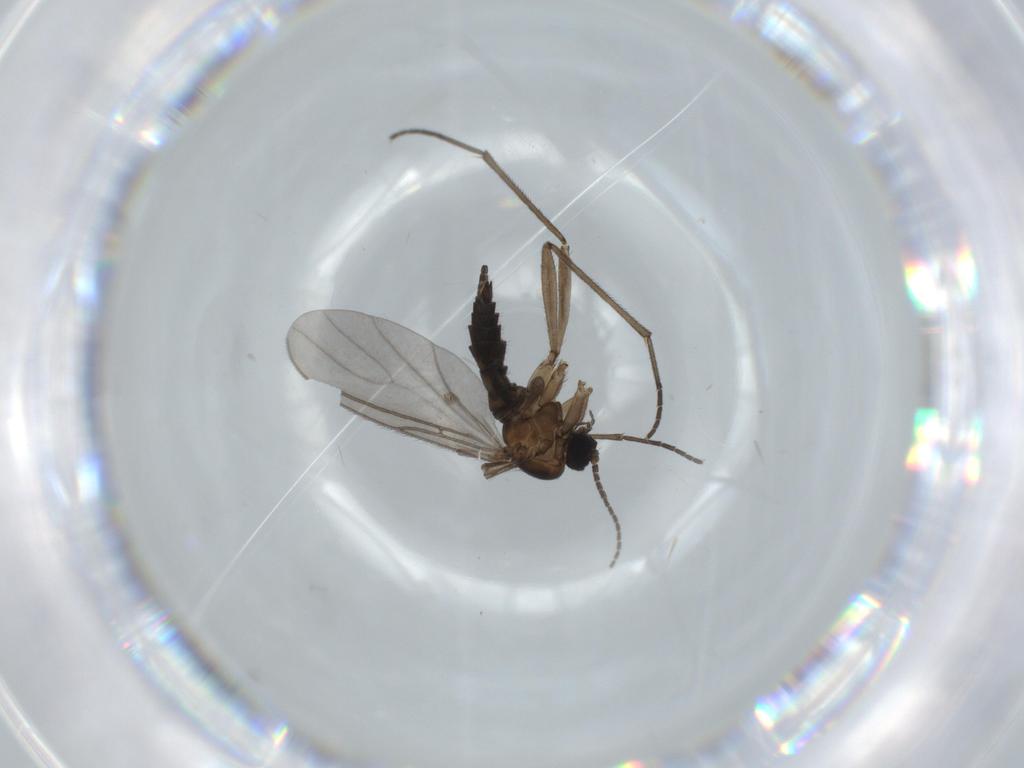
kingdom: Animalia
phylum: Arthropoda
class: Insecta
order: Diptera
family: Sciaridae
